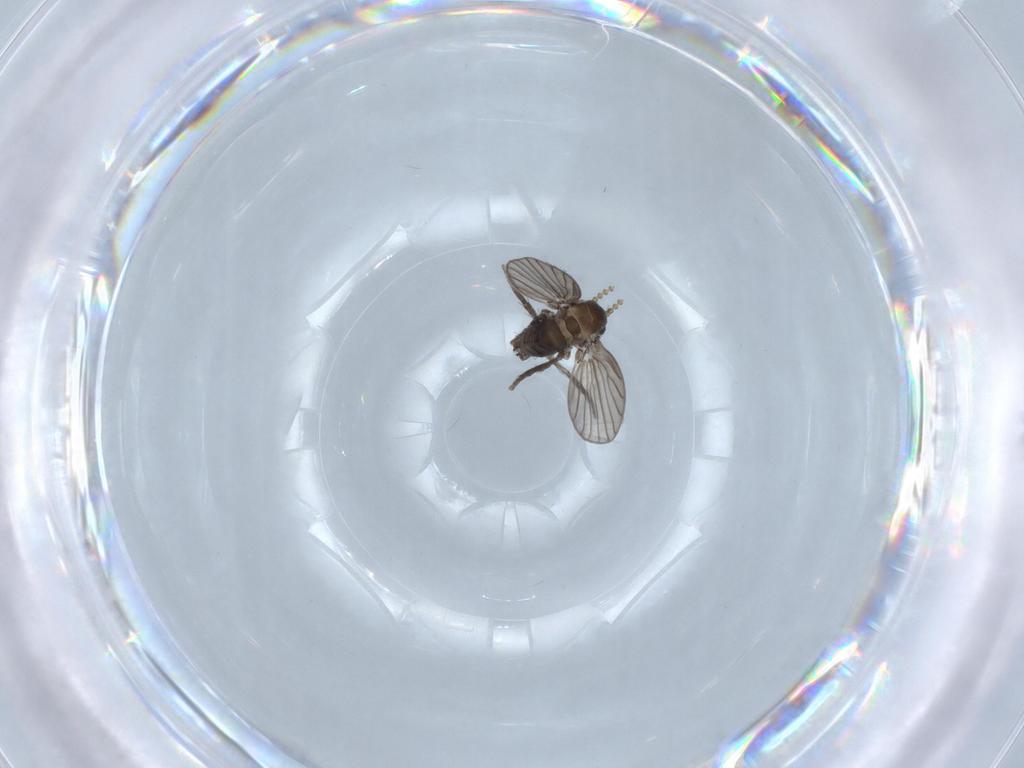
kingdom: Animalia
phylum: Arthropoda
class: Insecta
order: Diptera
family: Psychodidae
